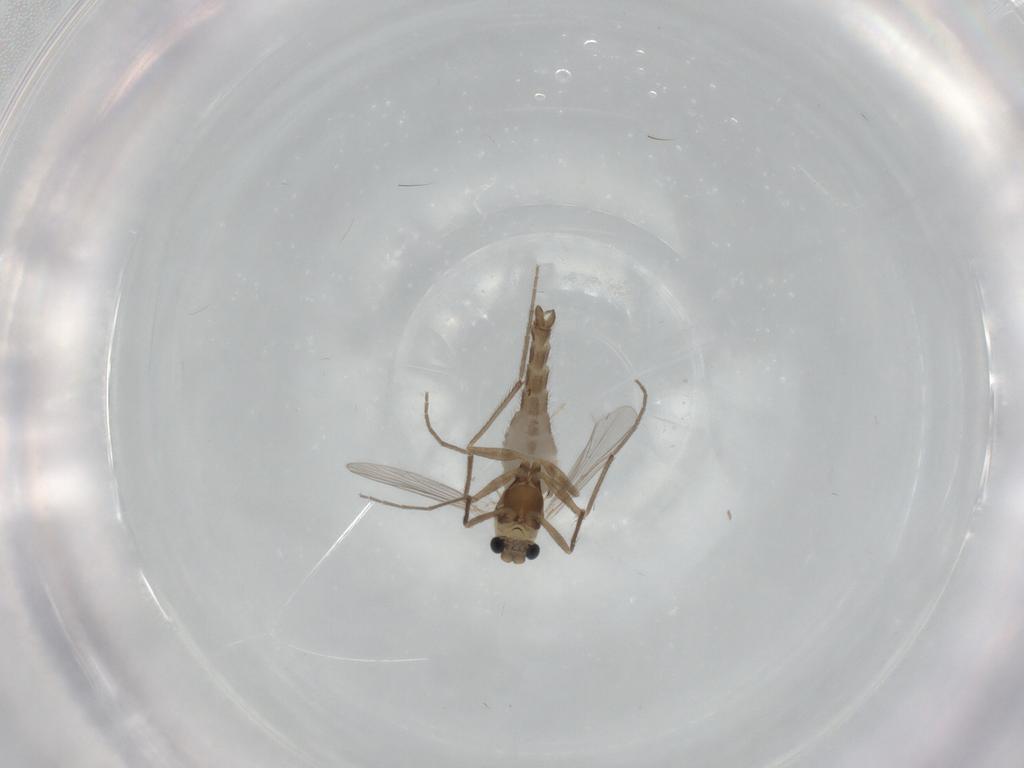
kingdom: Animalia
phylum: Arthropoda
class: Insecta
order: Diptera
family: Chironomidae
